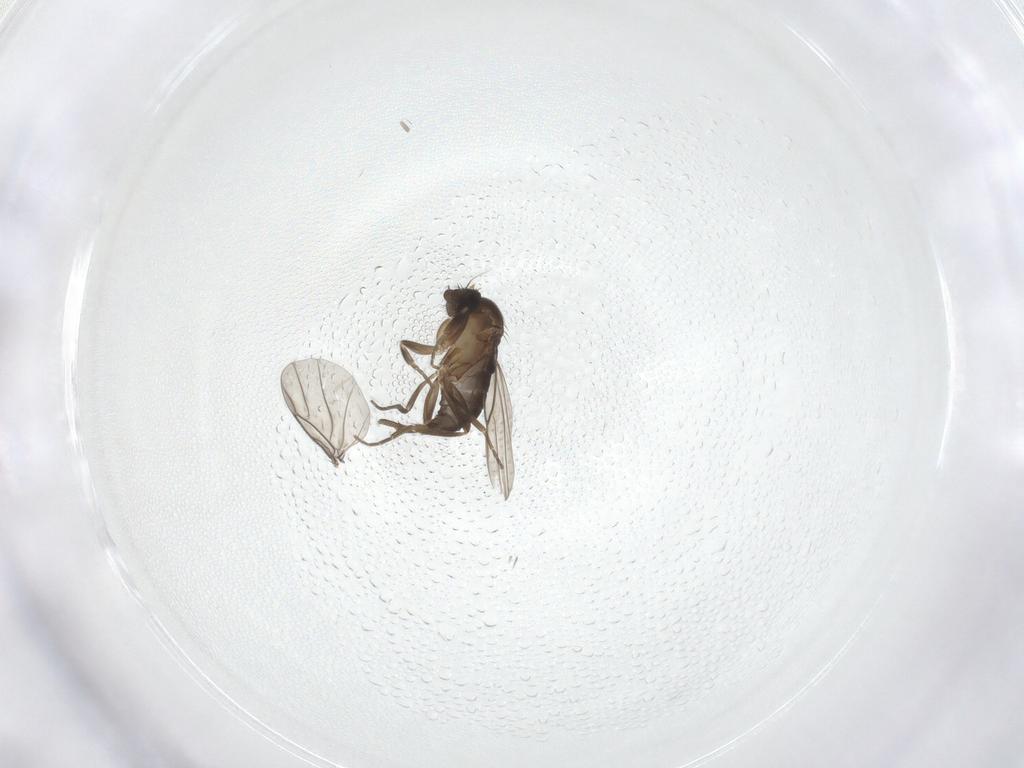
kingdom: Animalia
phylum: Arthropoda
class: Insecta
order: Diptera
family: Phoridae
